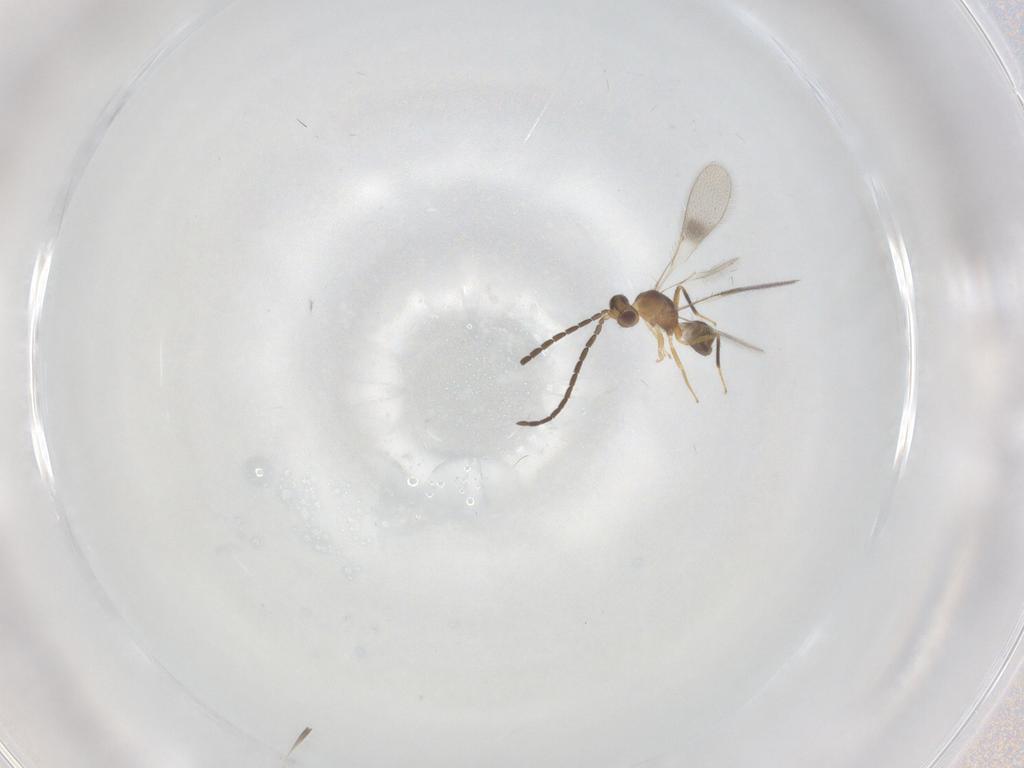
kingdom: Animalia
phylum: Arthropoda
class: Insecta
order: Hymenoptera
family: Mymaridae
